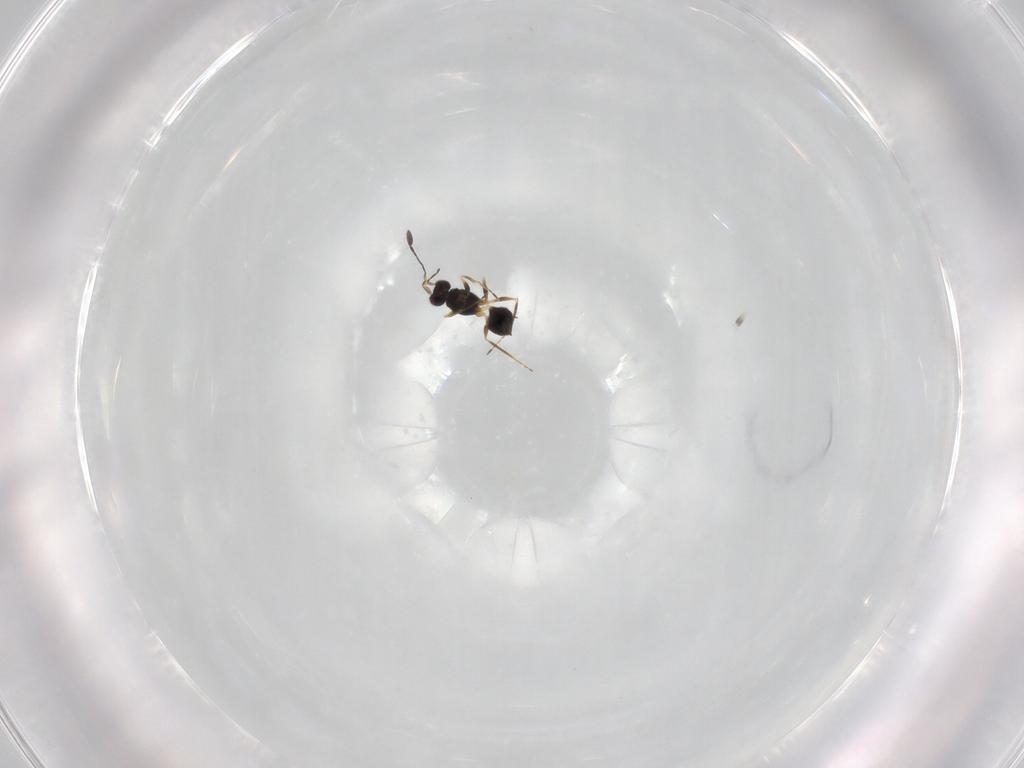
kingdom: Animalia
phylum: Arthropoda
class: Insecta
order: Hymenoptera
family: Mymaridae
